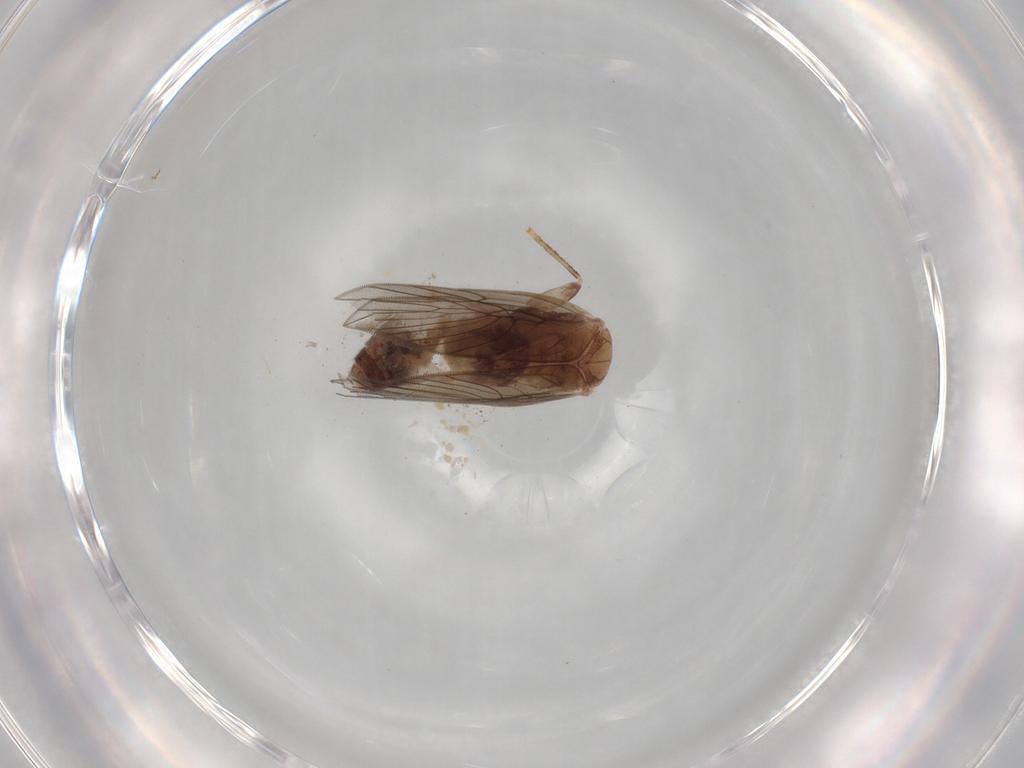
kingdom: Animalia
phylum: Arthropoda
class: Insecta
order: Psocodea
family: Lepidopsocidae
